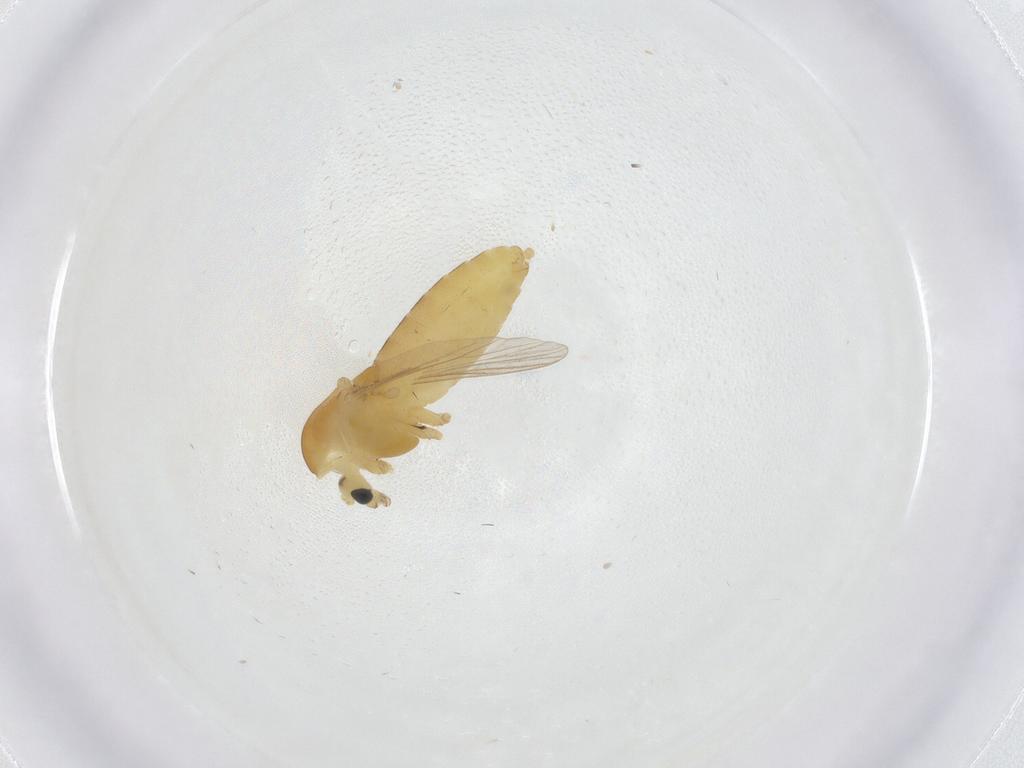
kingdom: Animalia
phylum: Arthropoda
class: Insecta
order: Diptera
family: Chironomidae
